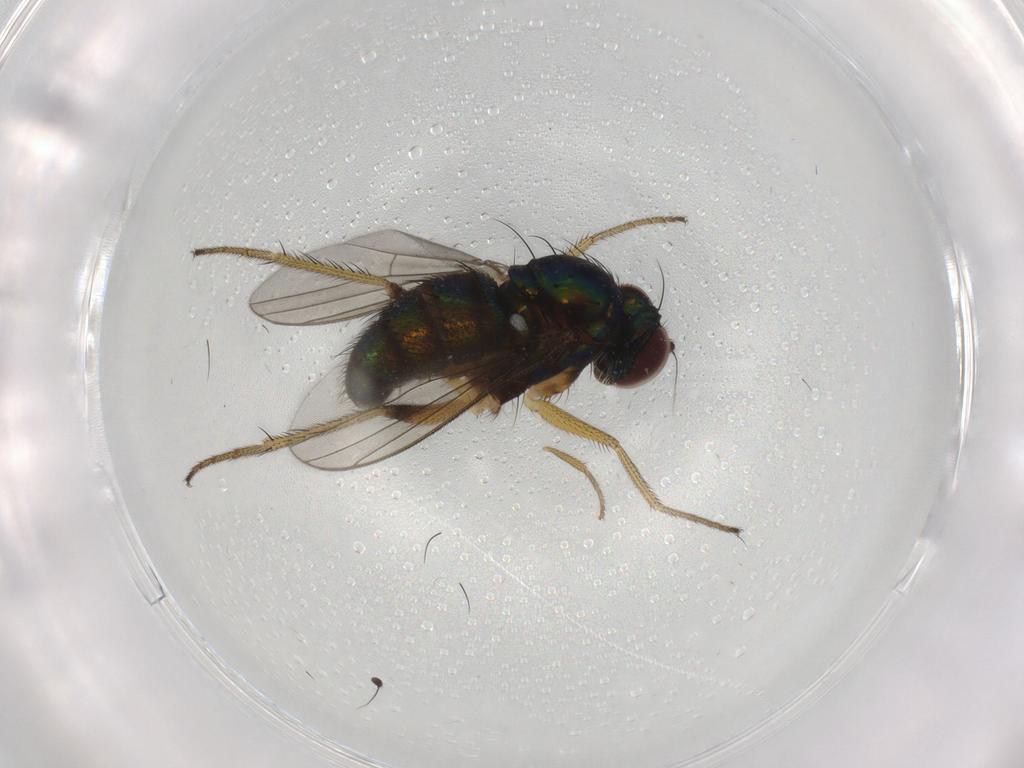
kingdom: Animalia
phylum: Arthropoda
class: Insecta
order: Diptera
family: Dolichopodidae
